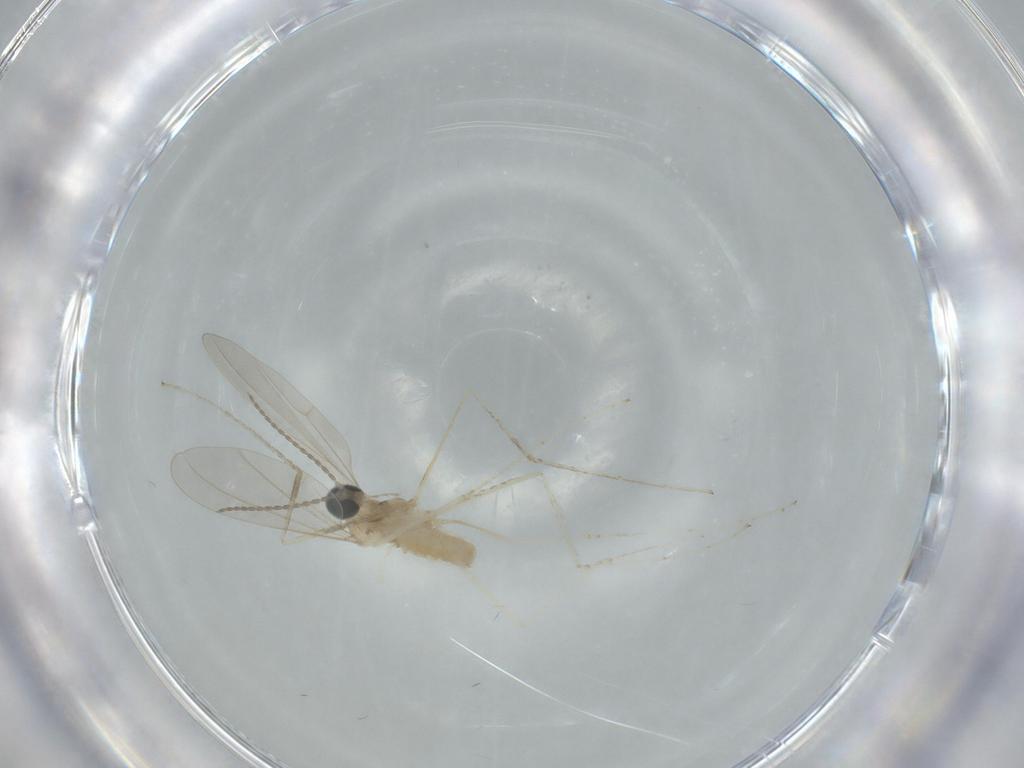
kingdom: Animalia
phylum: Arthropoda
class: Insecta
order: Diptera
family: Cecidomyiidae
